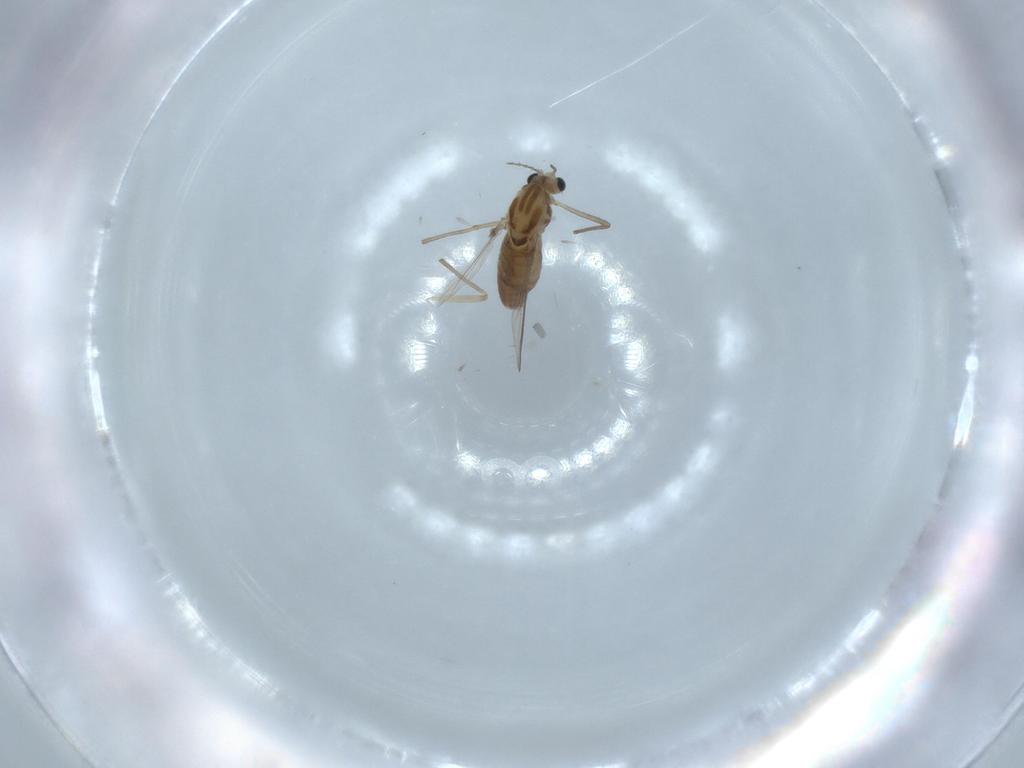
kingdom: Animalia
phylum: Arthropoda
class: Insecta
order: Diptera
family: Chironomidae
